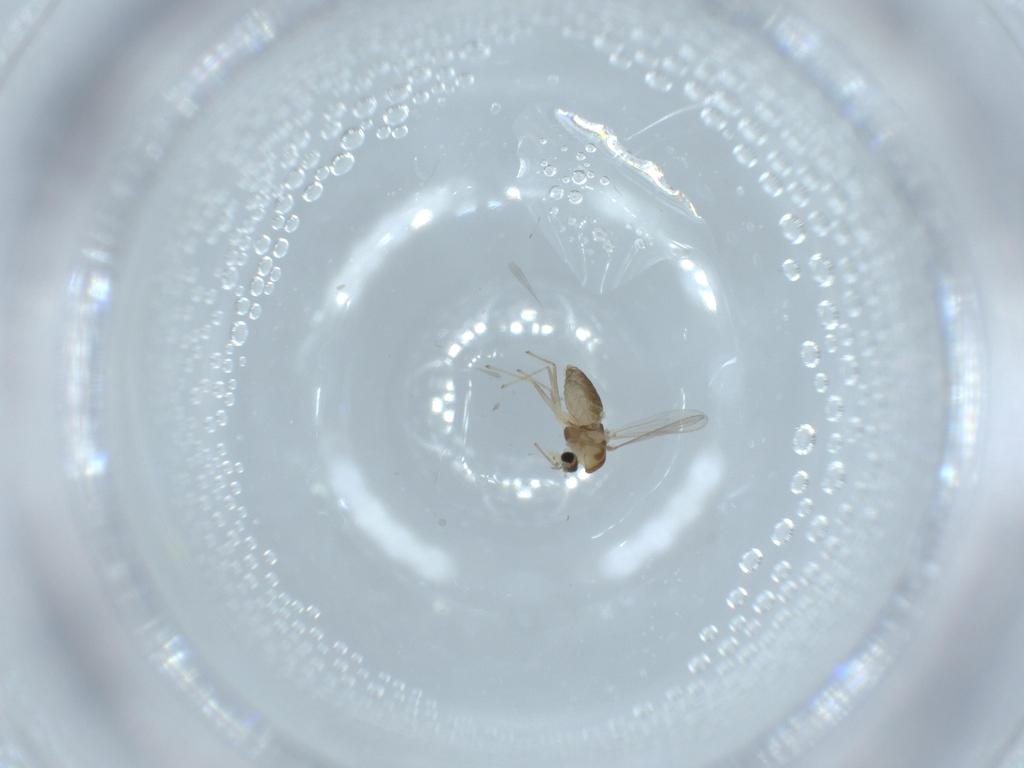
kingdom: Animalia
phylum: Arthropoda
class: Insecta
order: Diptera
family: Chironomidae
